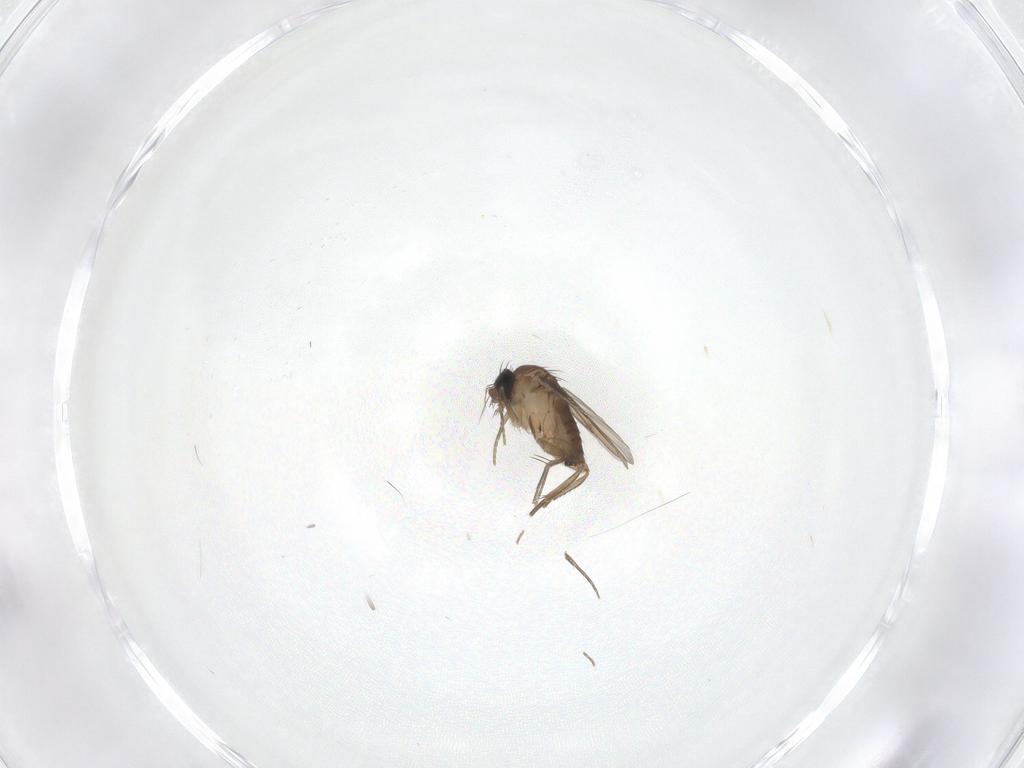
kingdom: Animalia
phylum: Arthropoda
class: Insecta
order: Diptera
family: Phoridae
